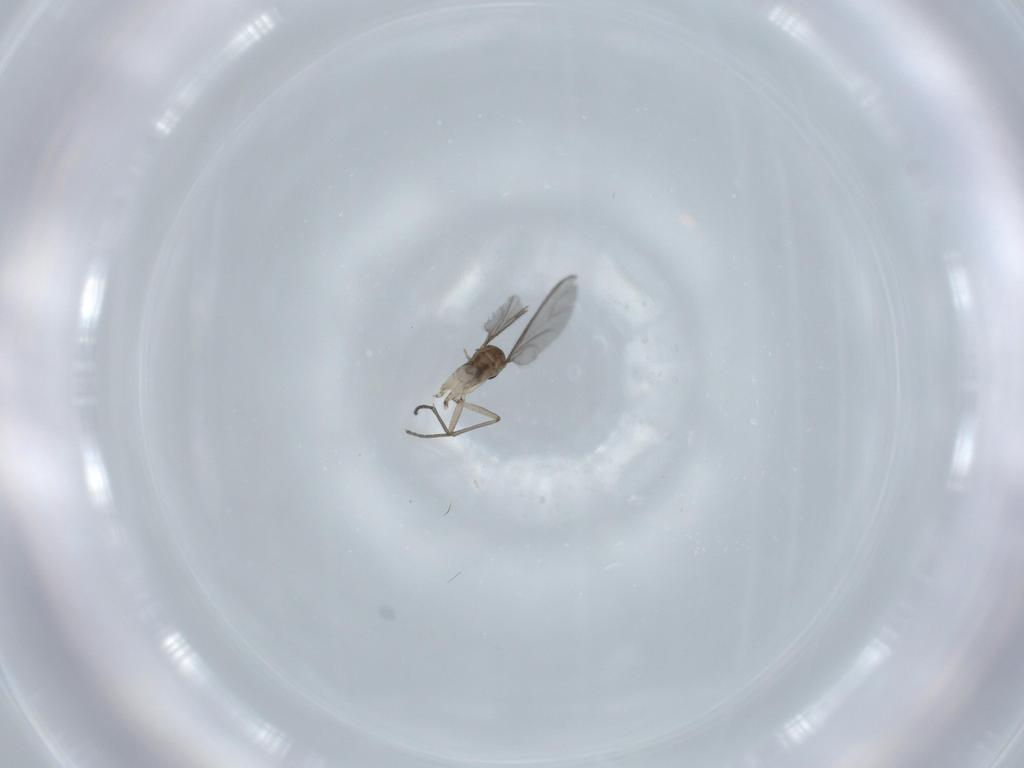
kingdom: Animalia
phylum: Arthropoda
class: Insecta
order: Diptera
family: Sciaridae
